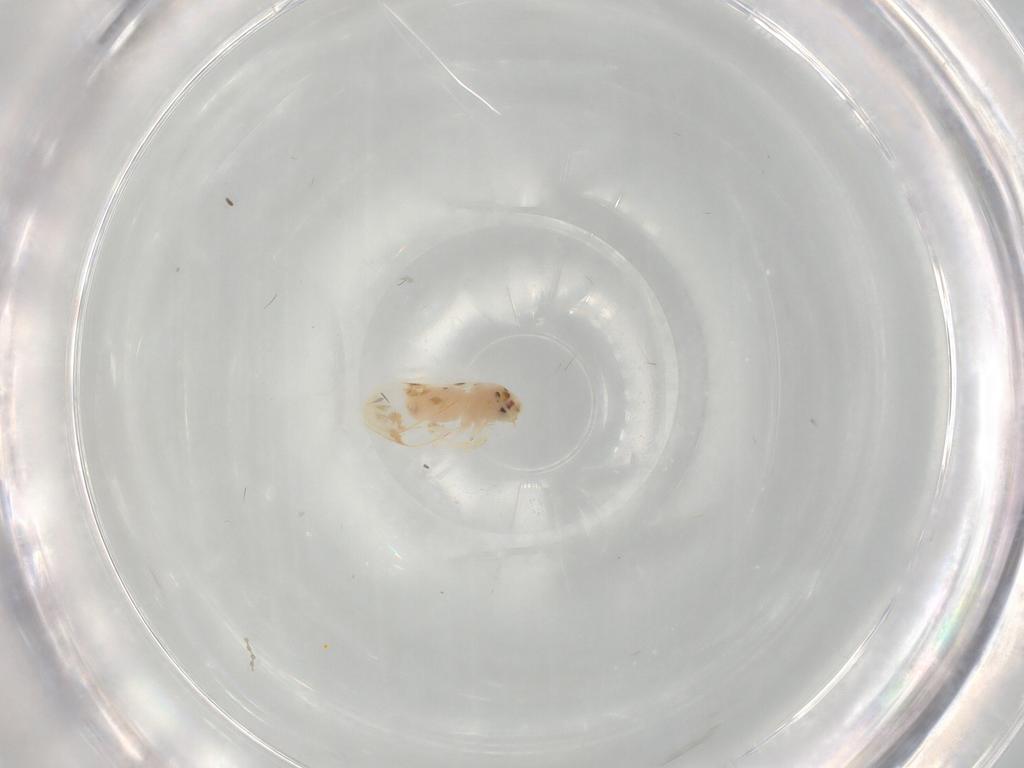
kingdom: Animalia
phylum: Arthropoda
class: Insecta
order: Hemiptera
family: Aleyrodidae
